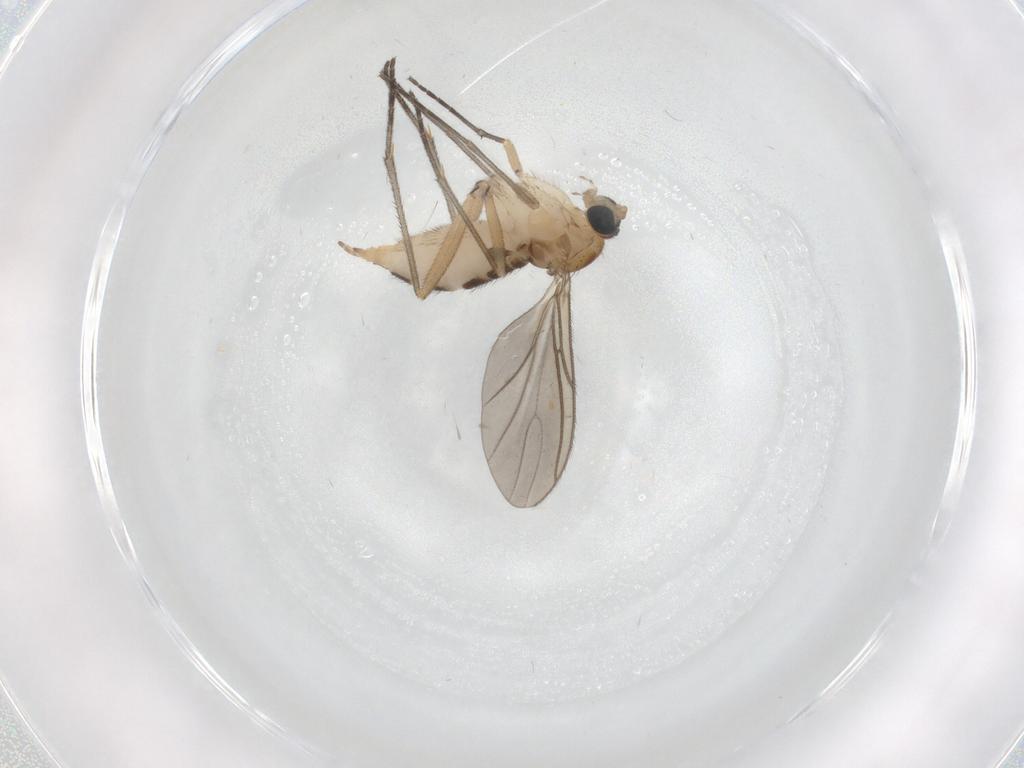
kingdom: Animalia
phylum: Arthropoda
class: Insecta
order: Diptera
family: Sciaridae
